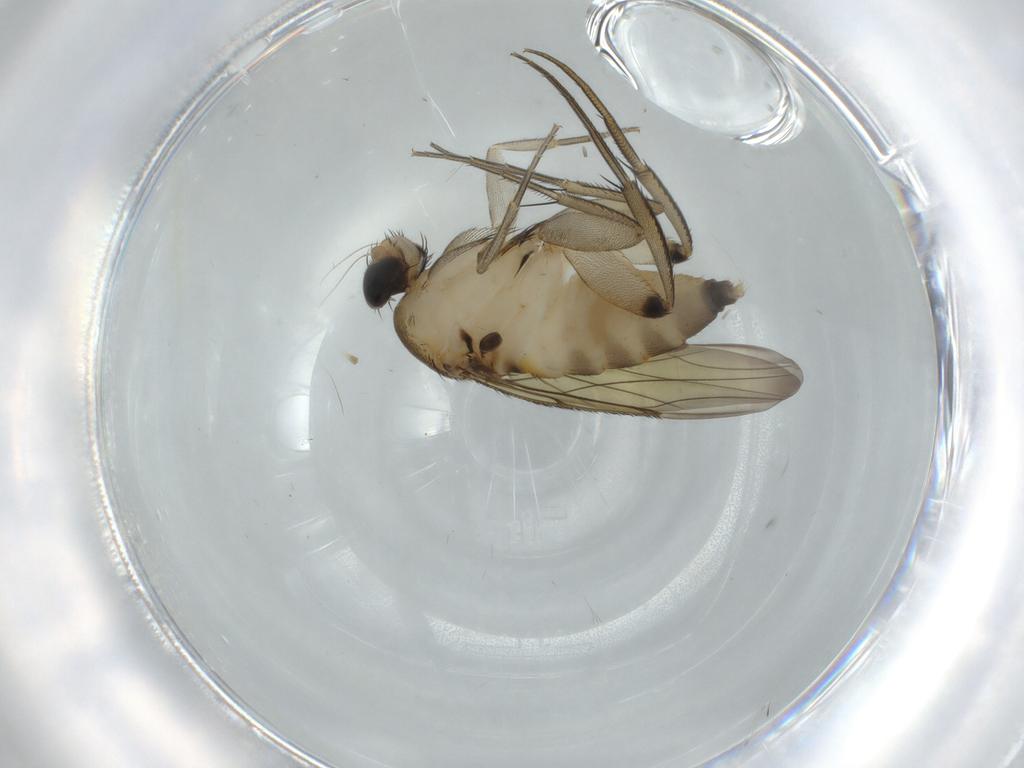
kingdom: Animalia
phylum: Arthropoda
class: Insecta
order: Diptera
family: Phoridae
